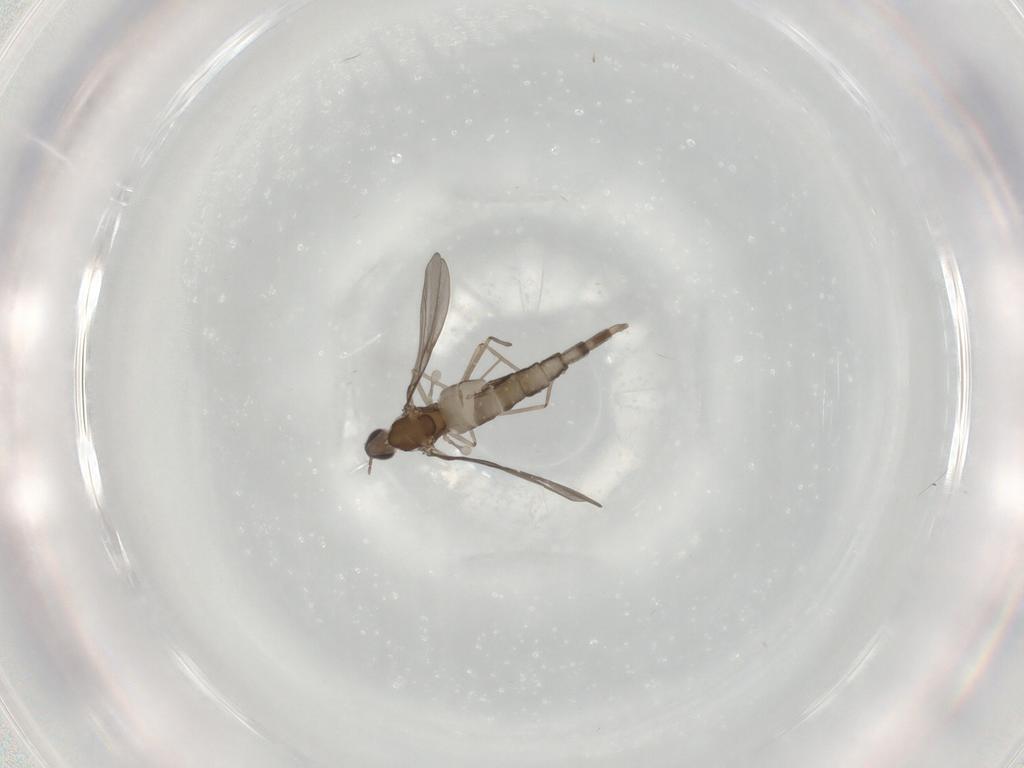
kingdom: Animalia
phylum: Arthropoda
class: Insecta
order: Diptera
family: Cecidomyiidae
